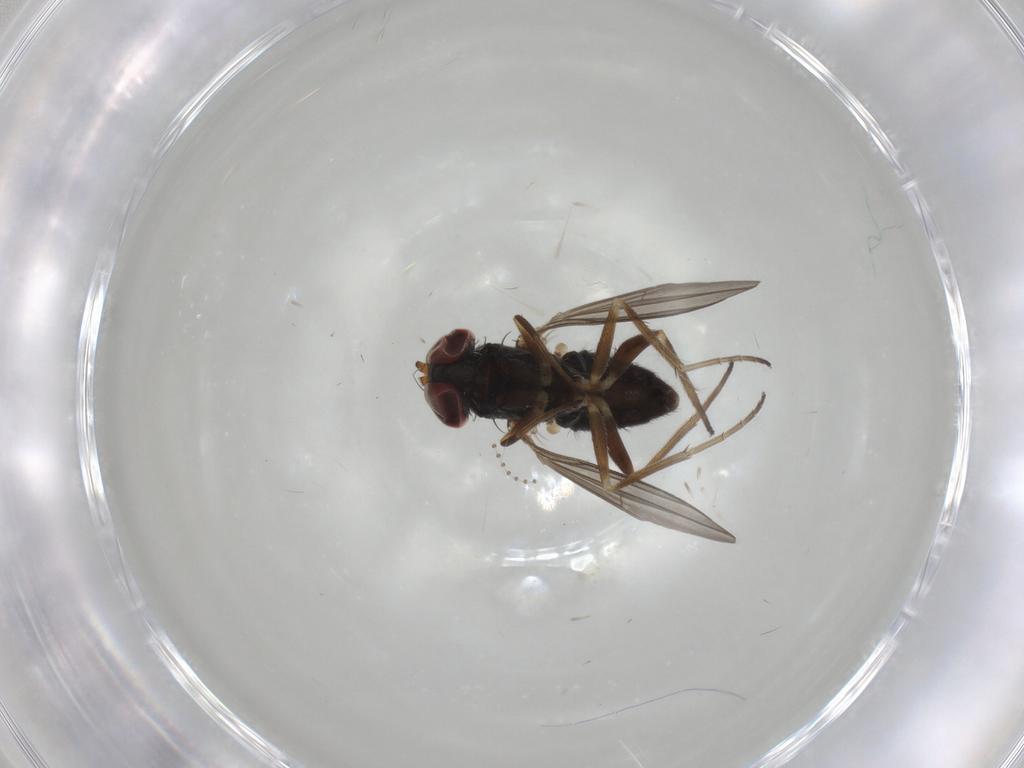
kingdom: Animalia
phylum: Arthropoda
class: Insecta
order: Diptera
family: Dolichopodidae
